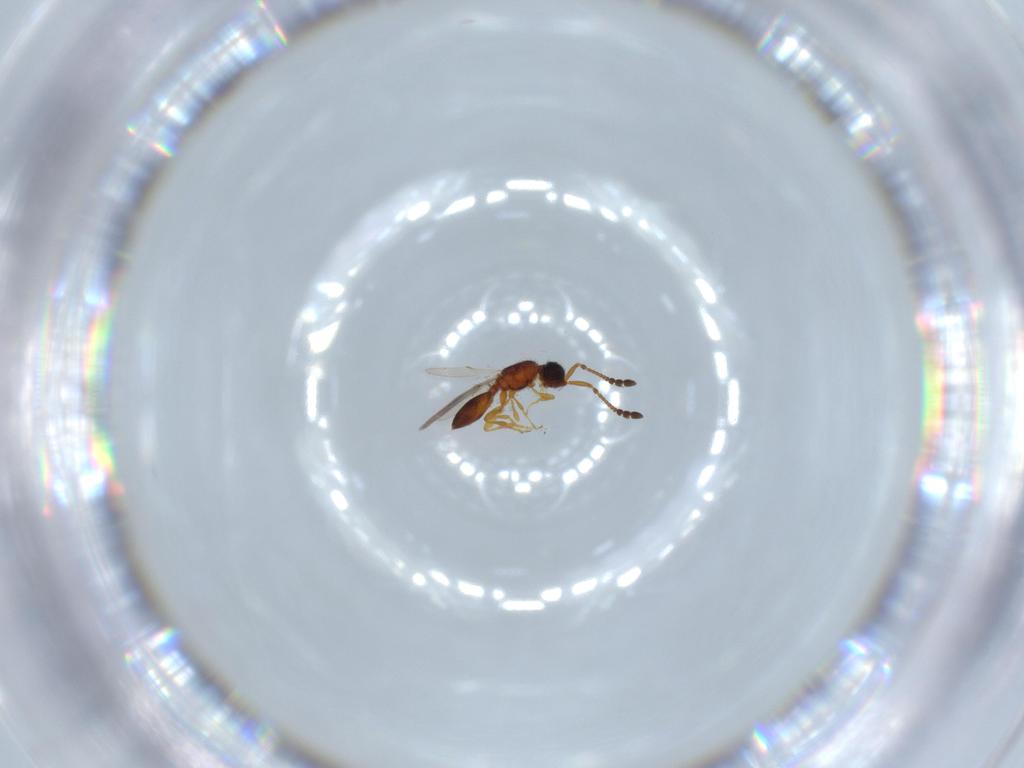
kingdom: Animalia
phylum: Arthropoda
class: Insecta
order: Hymenoptera
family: Diapriidae
